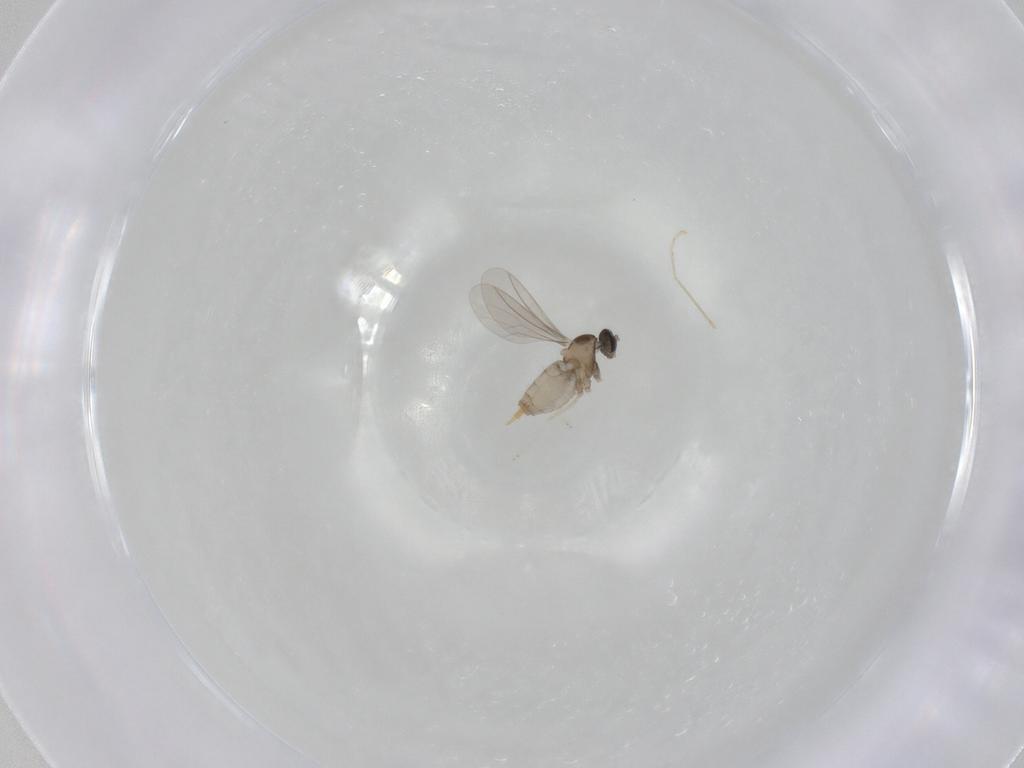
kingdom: Animalia
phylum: Arthropoda
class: Insecta
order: Diptera
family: Cecidomyiidae
